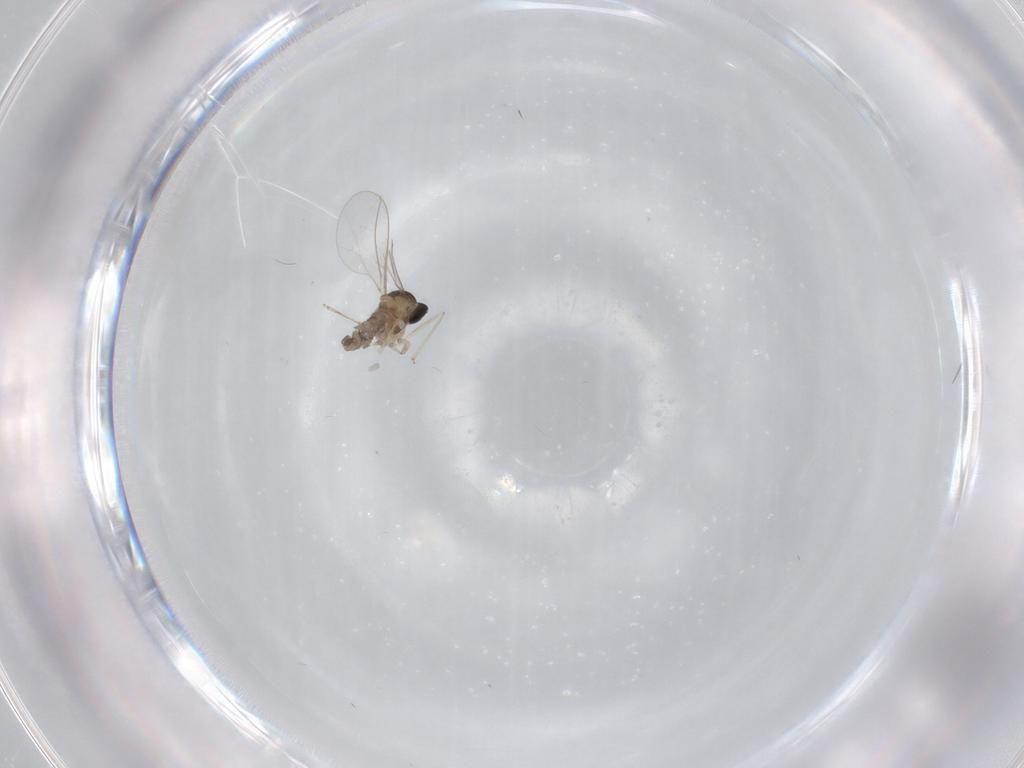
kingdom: Animalia
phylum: Arthropoda
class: Insecta
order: Diptera
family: Cecidomyiidae
